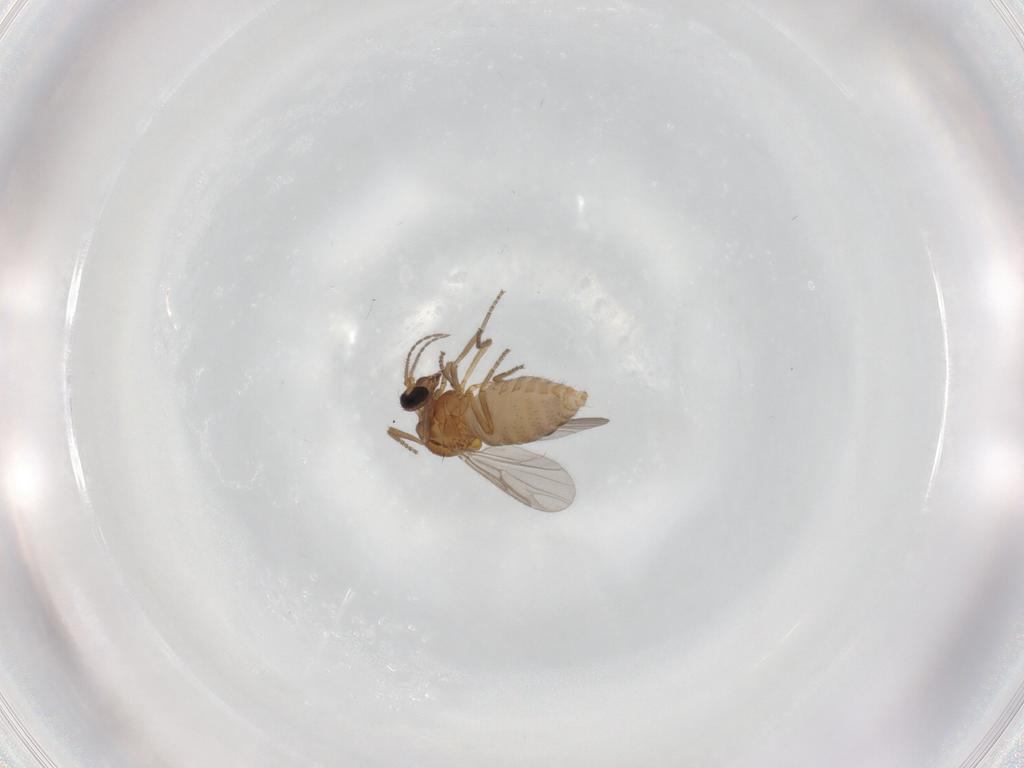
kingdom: Animalia
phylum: Arthropoda
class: Insecta
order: Diptera
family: Ceratopogonidae
